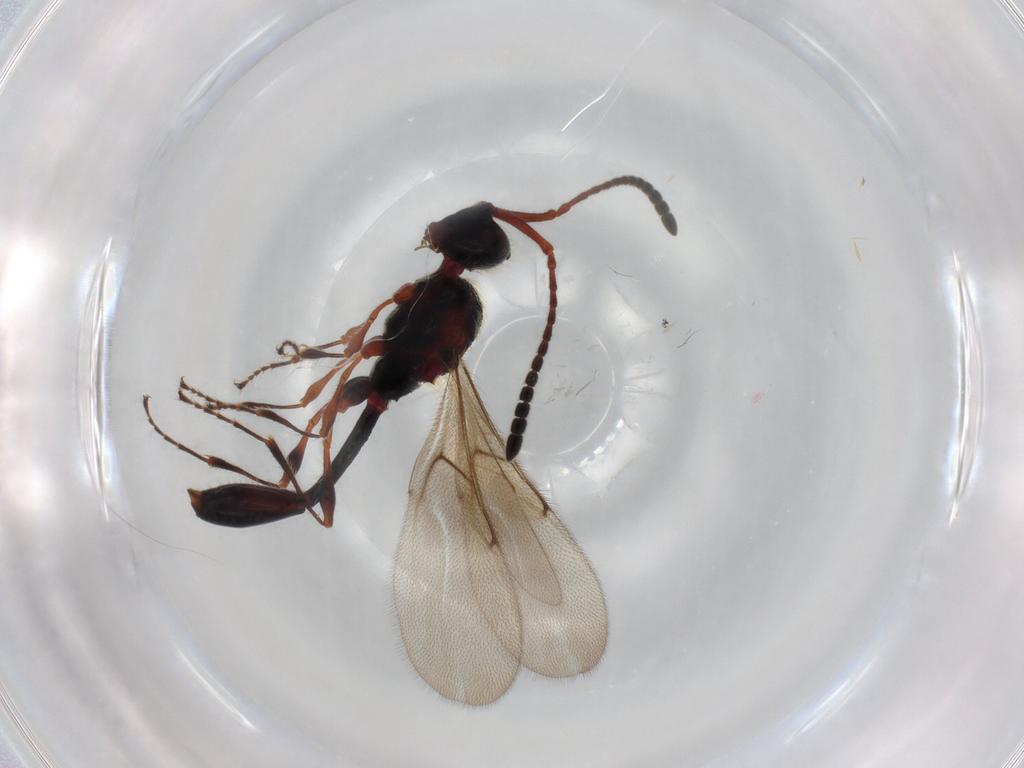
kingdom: Animalia
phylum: Arthropoda
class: Insecta
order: Hymenoptera
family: Diapriidae
